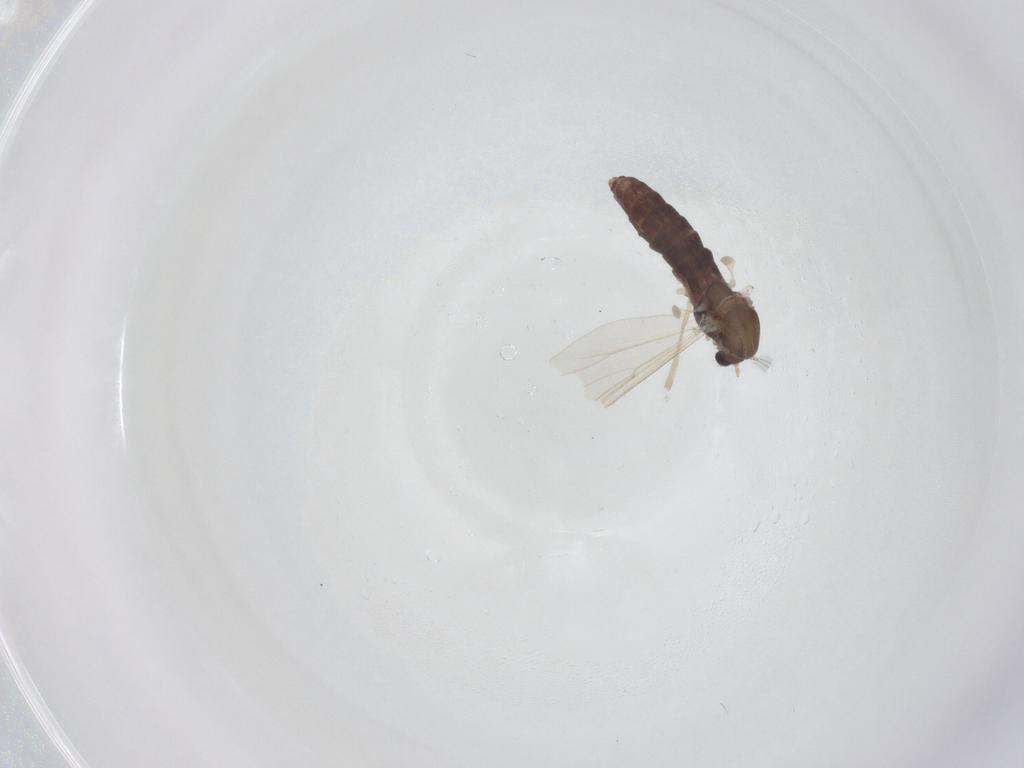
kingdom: Animalia
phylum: Arthropoda
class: Insecta
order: Diptera
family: Chironomidae
